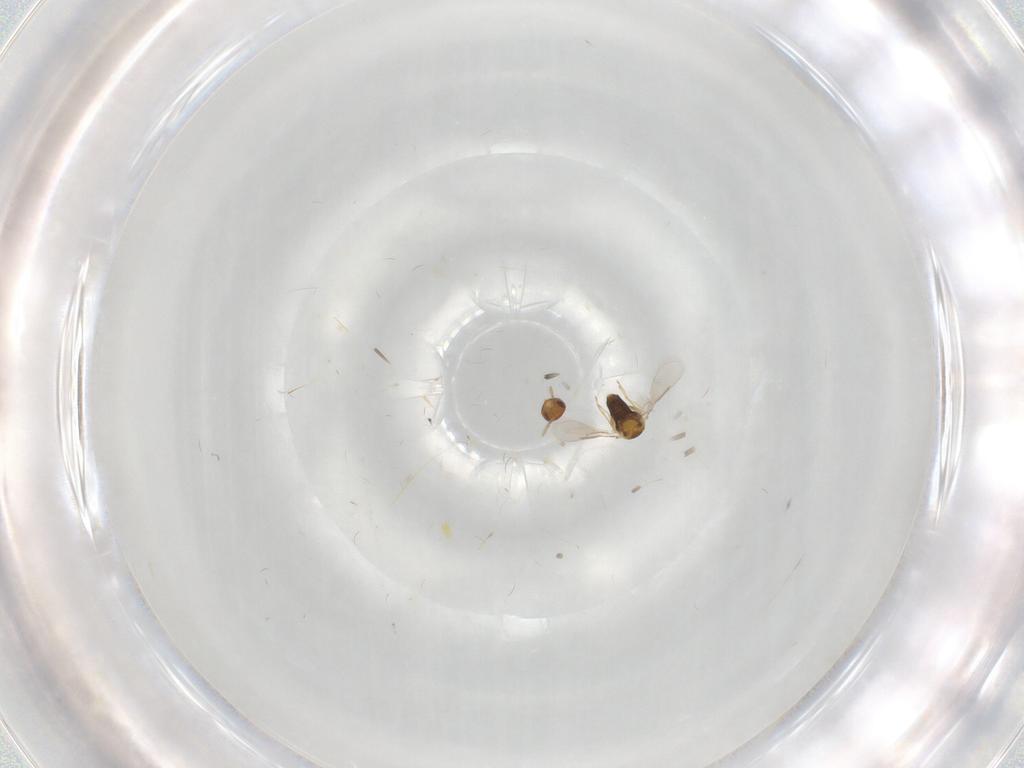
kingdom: Animalia
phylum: Arthropoda
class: Insecta
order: Hymenoptera
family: Aphelinidae
